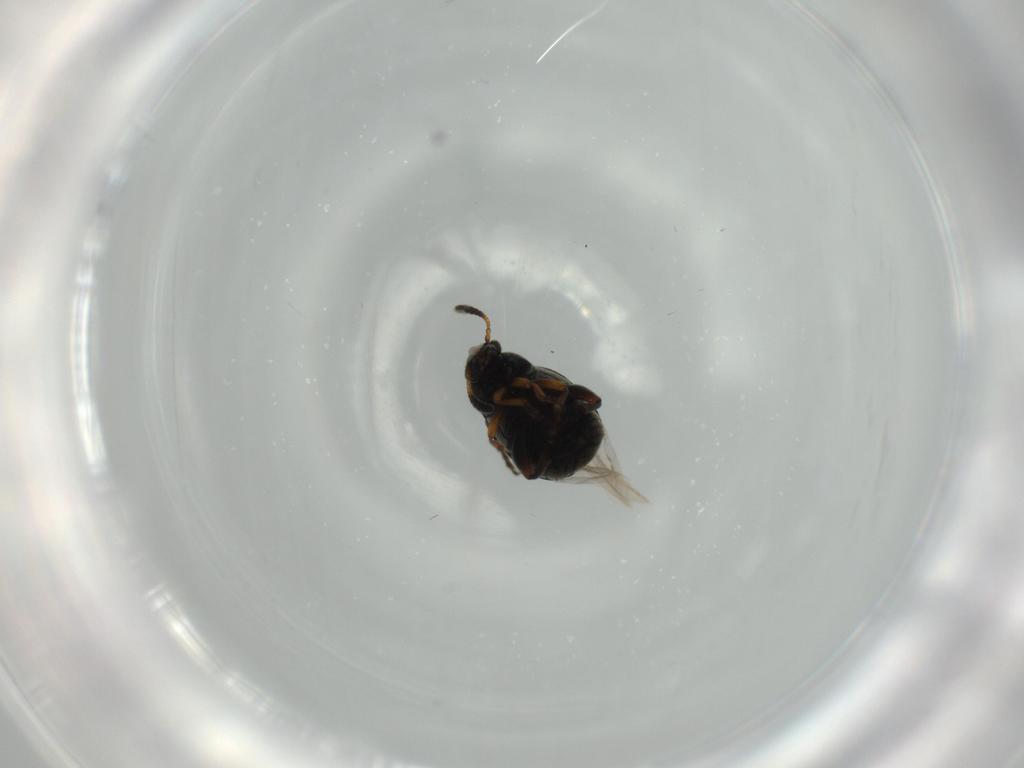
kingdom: Animalia
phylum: Arthropoda
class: Insecta
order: Coleoptera
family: Chrysomelidae
